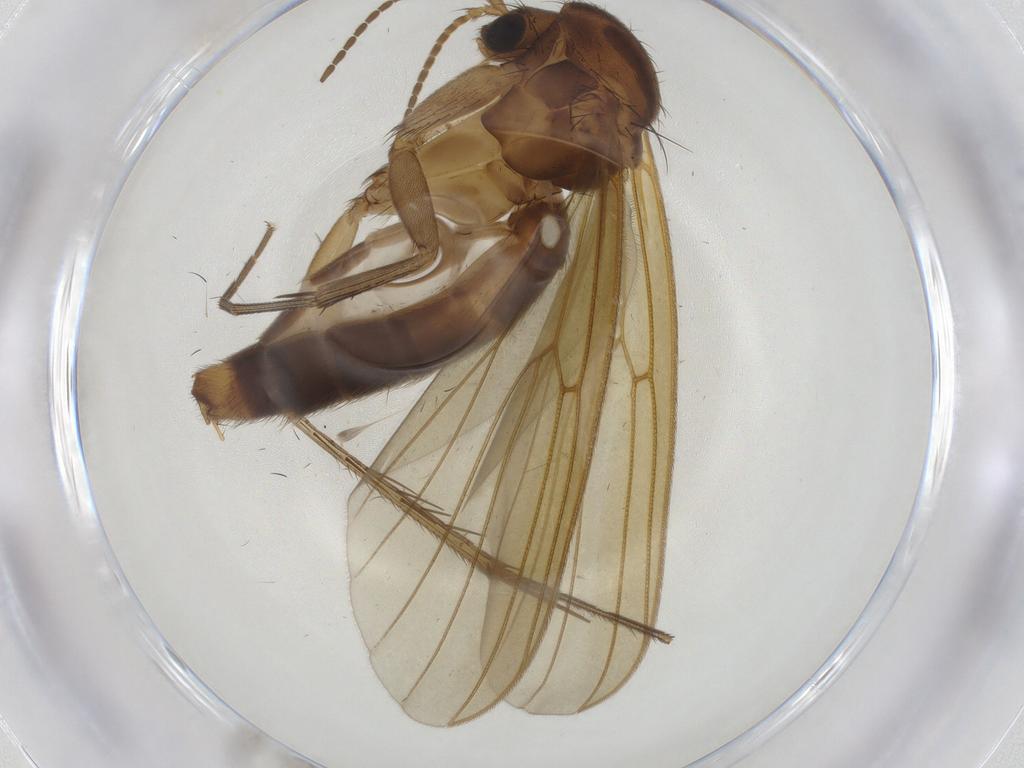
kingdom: Animalia
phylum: Arthropoda
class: Insecta
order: Diptera
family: Mycetophilidae
